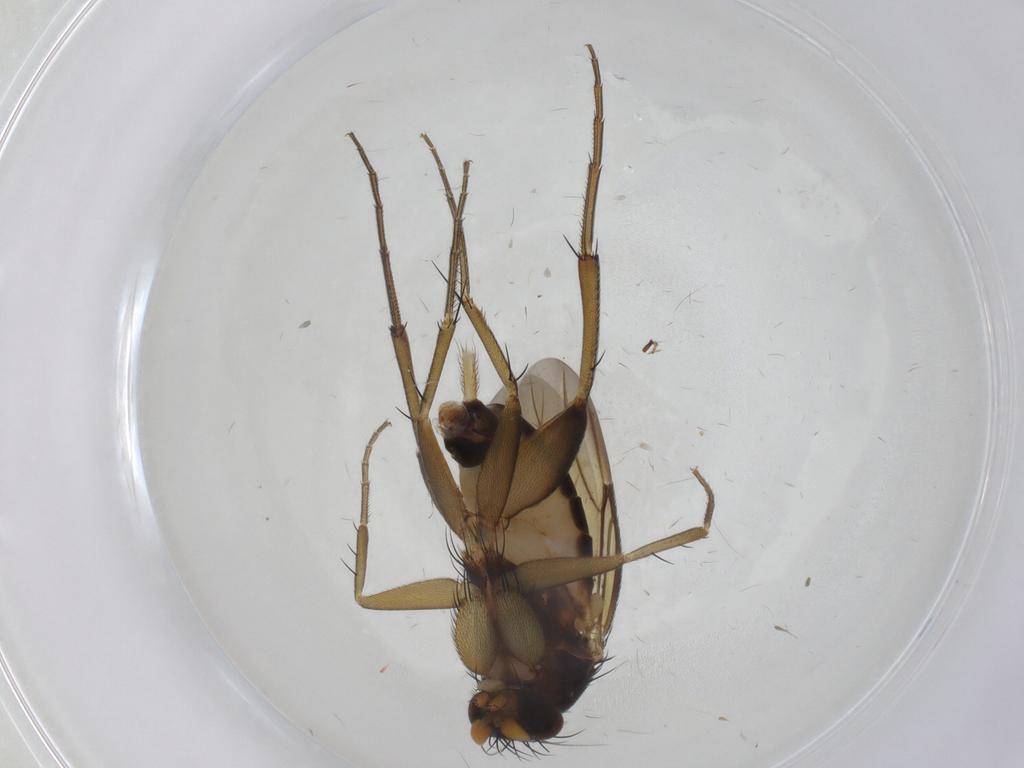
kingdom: Animalia
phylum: Arthropoda
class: Insecta
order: Diptera
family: Phoridae
